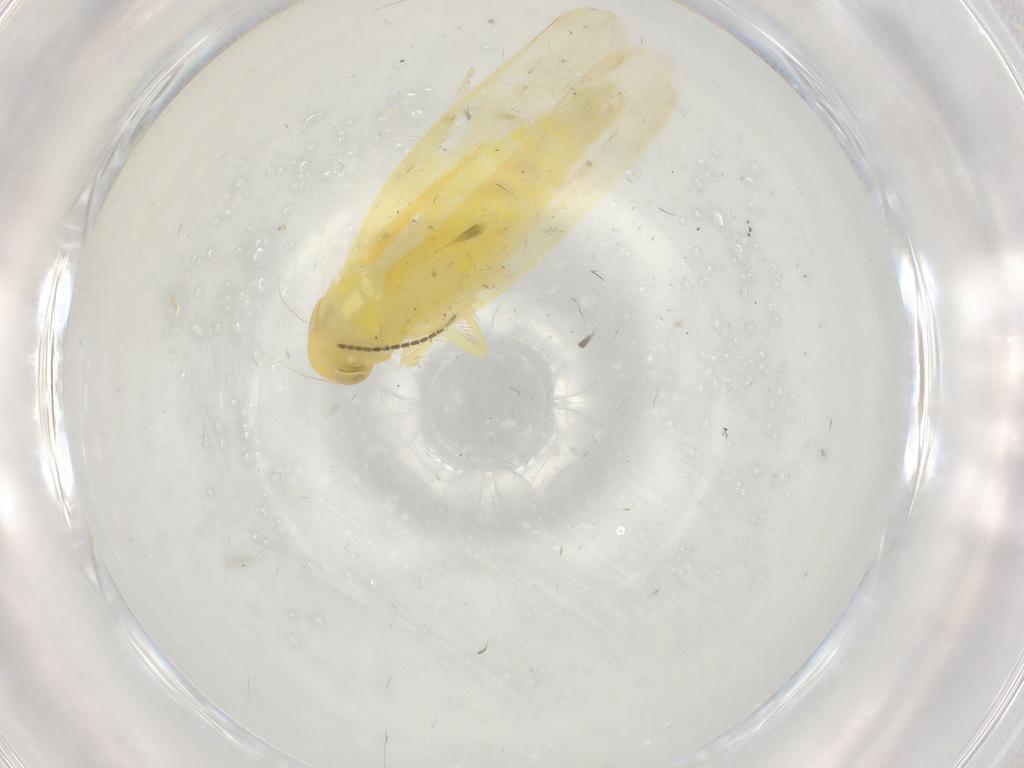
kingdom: Animalia
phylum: Arthropoda
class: Insecta
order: Hemiptera
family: Cicadellidae
